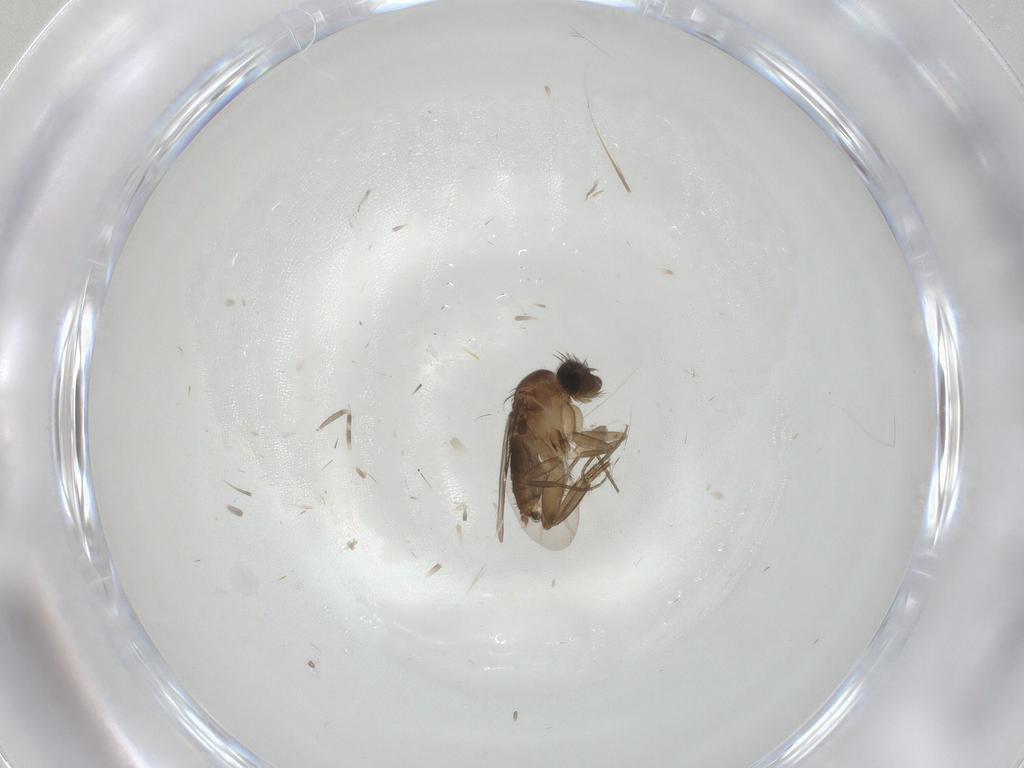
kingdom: Animalia
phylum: Arthropoda
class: Insecta
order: Diptera
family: Phoridae
